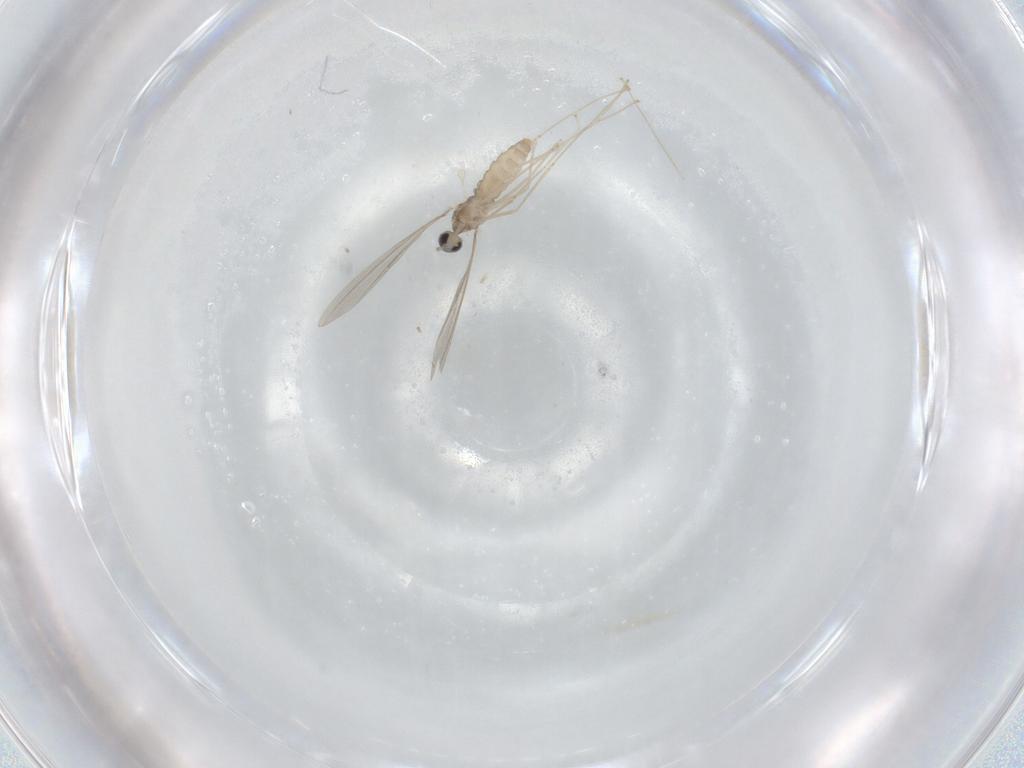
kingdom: Animalia
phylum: Arthropoda
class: Insecta
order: Diptera
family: Cecidomyiidae
